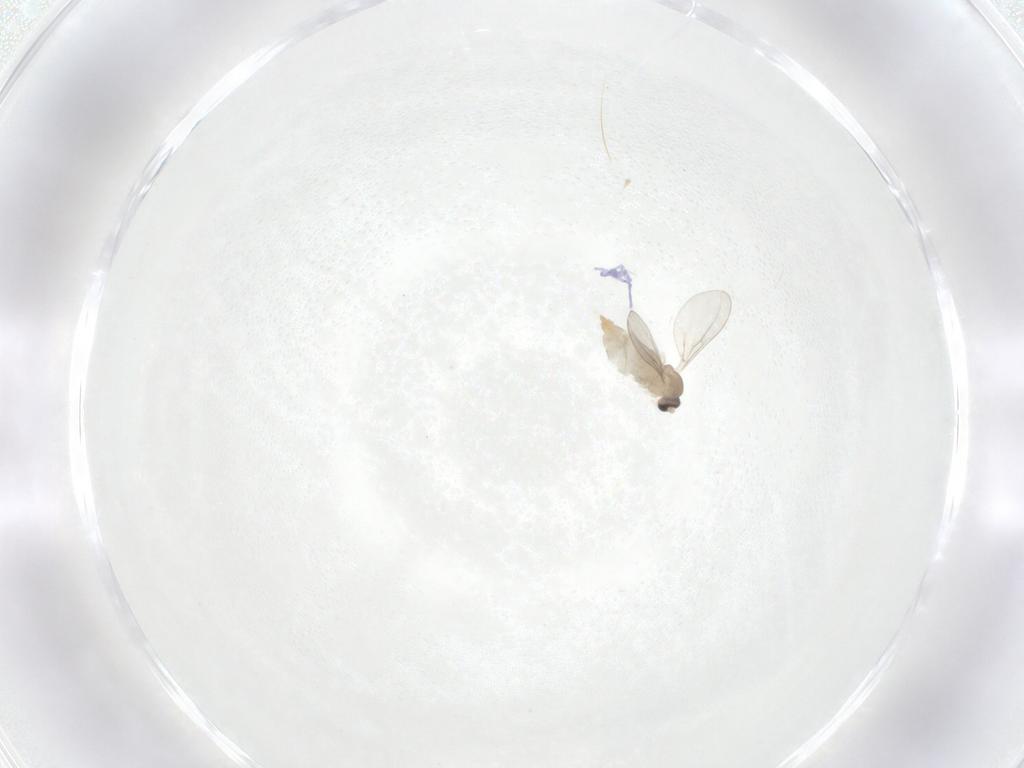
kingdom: Animalia
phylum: Arthropoda
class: Insecta
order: Diptera
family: Cecidomyiidae
